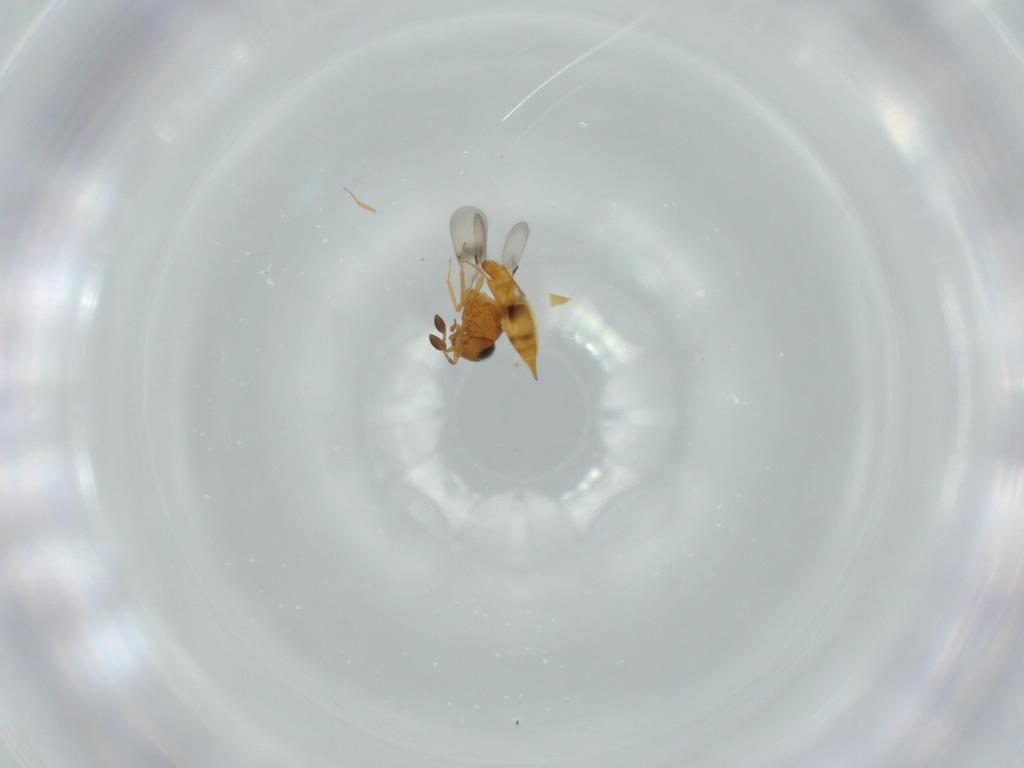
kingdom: Animalia
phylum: Arthropoda
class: Insecta
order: Hymenoptera
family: Scelionidae
